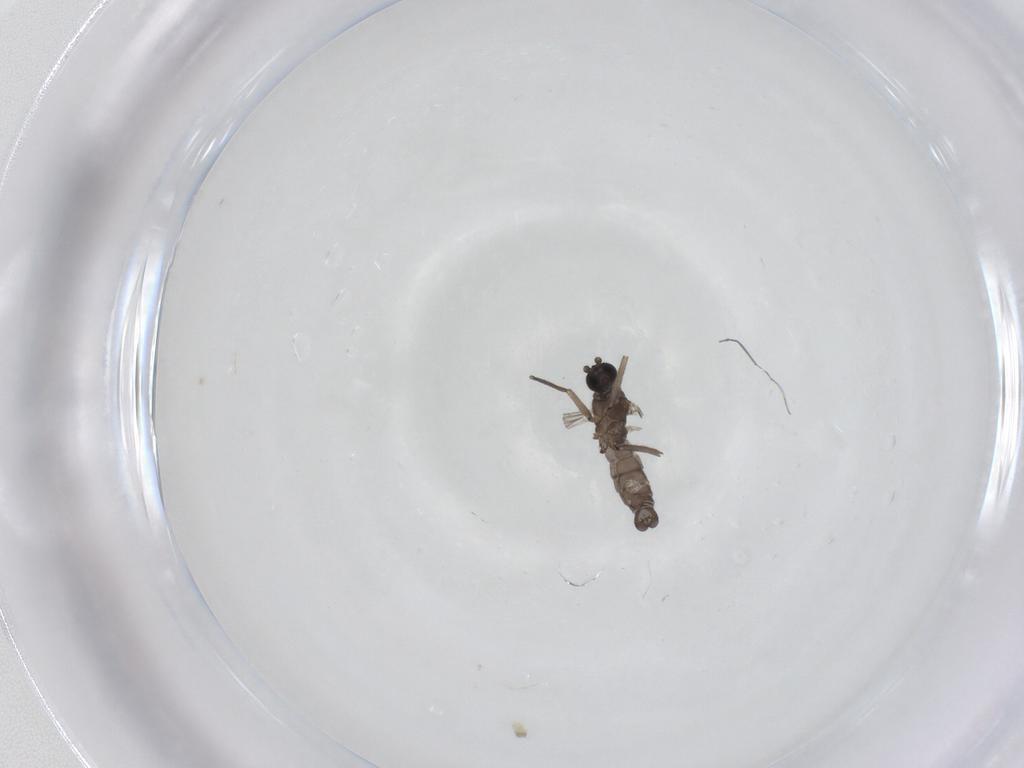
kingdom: Animalia
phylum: Arthropoda
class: Insecta
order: Diptera
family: Sciaridae
